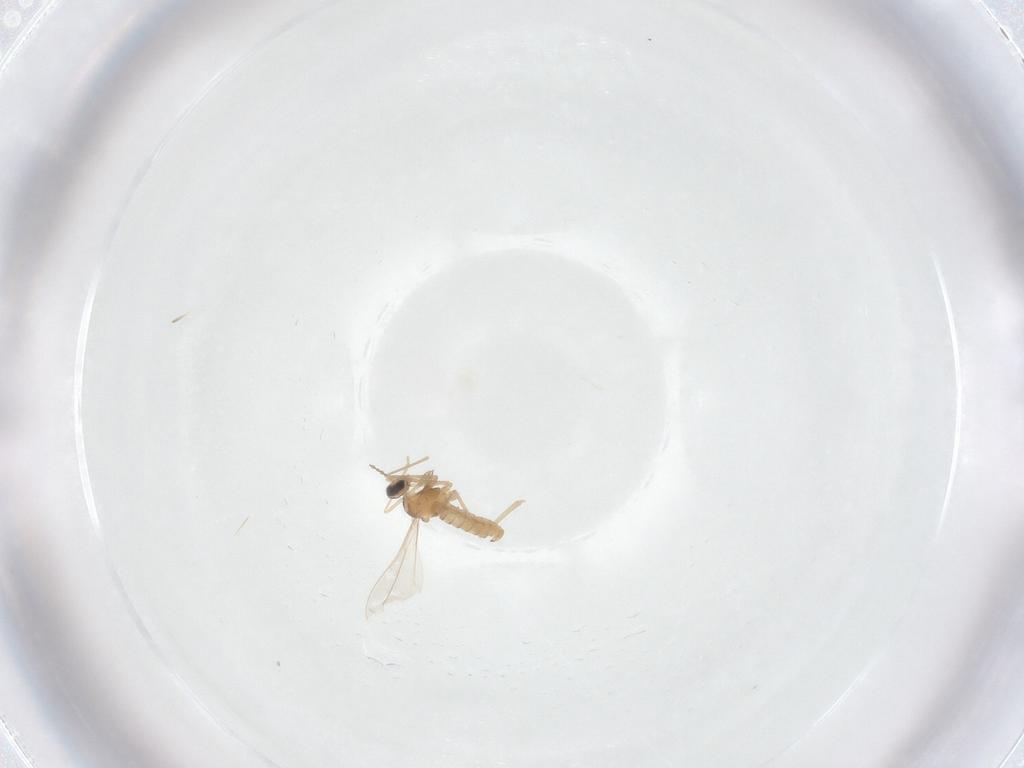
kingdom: Animalia
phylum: Arthropoda
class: Insecta
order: Diptera
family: Cecidomyiidae
